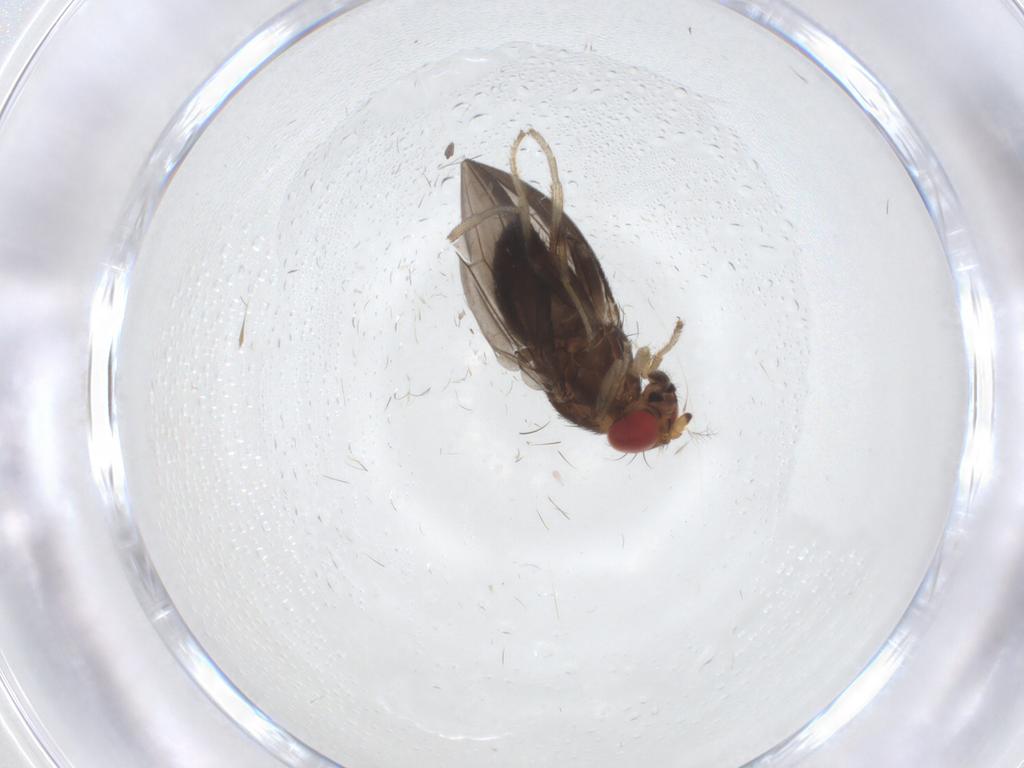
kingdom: Animalia
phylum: Arthropoda
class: Insecta
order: Diptera
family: Drosophilidae
